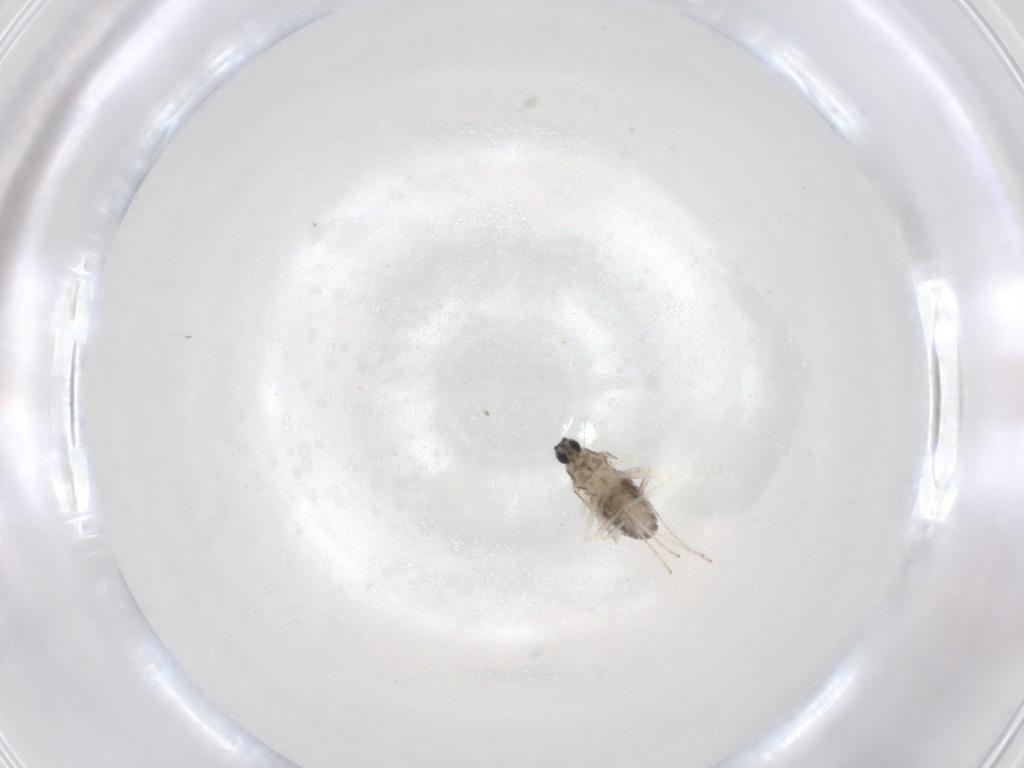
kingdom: Animalia
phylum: Arthropoda
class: Insecta
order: Diptera
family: Cecidomyiidae
